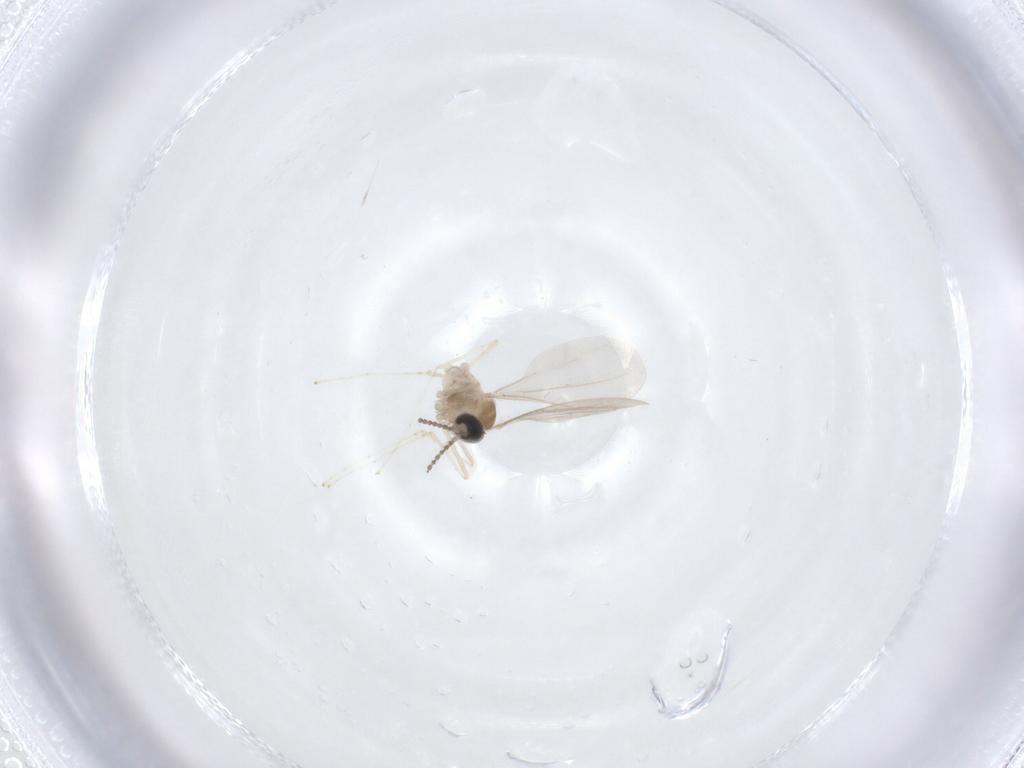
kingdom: Animalia
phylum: Arthropoda
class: Insecta
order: Diptera
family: Cecidomyiidae
